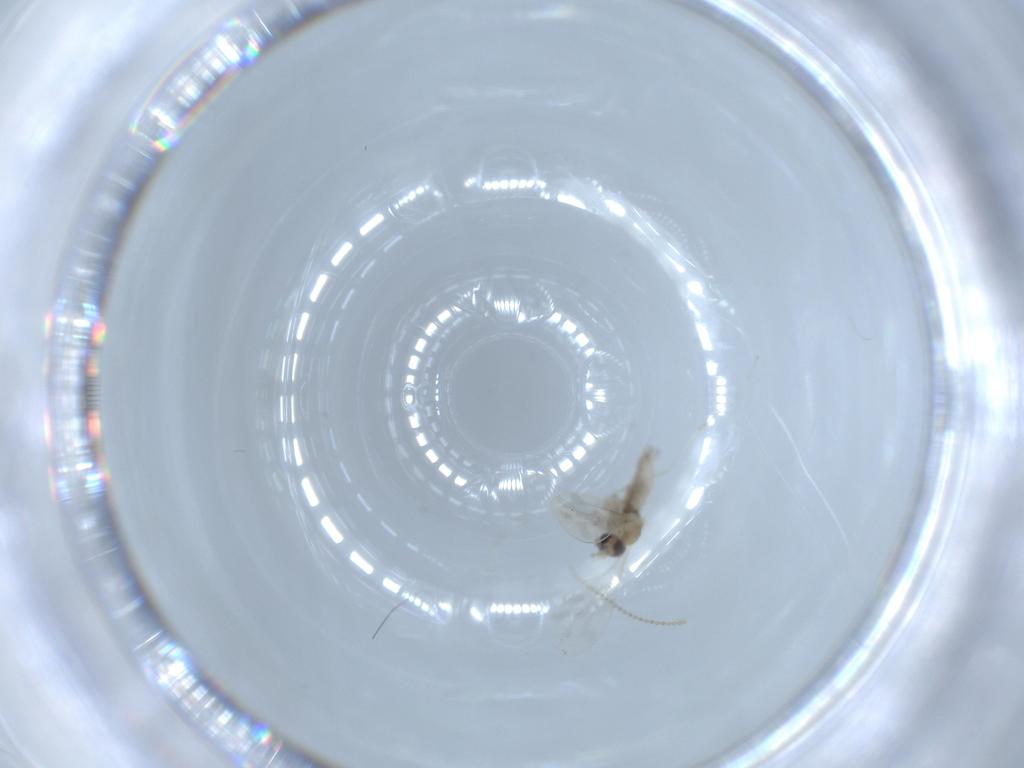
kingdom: Animalia
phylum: Arthropoda
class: Insecta
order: Diptera
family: Cecidomyiidae
